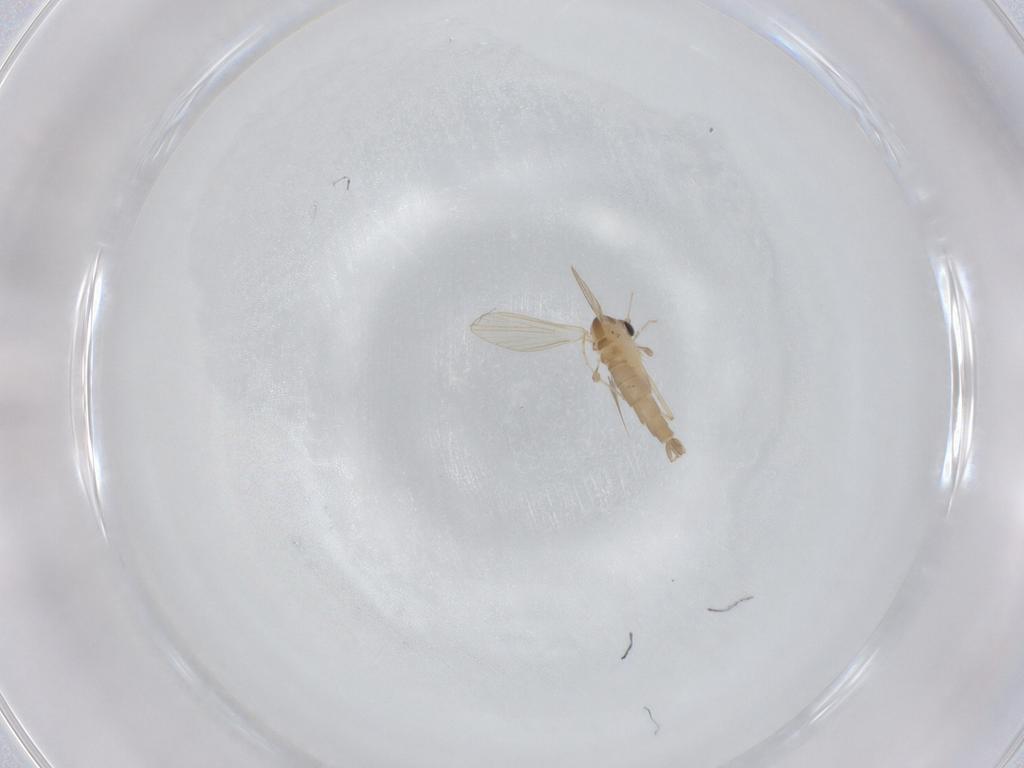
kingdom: Animalia
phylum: Arthropoda
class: Insecta
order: Diptera
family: Psychodidae
